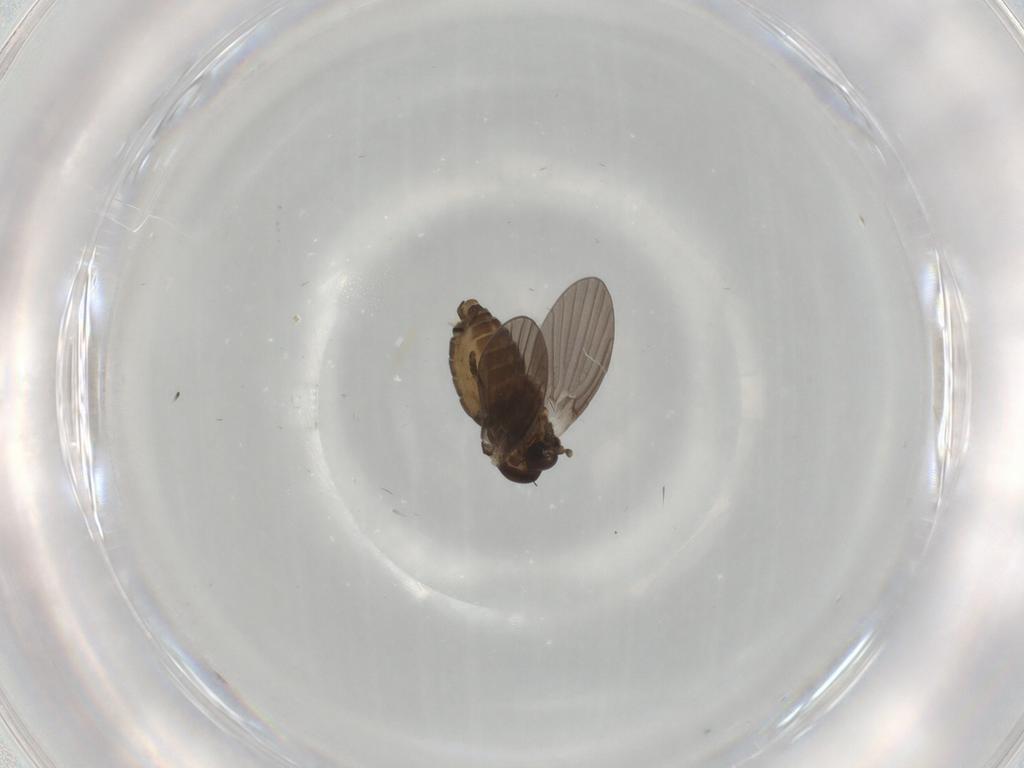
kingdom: Animalia
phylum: Arthropoda
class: Insecta
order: Diptera
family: Psychodidae
